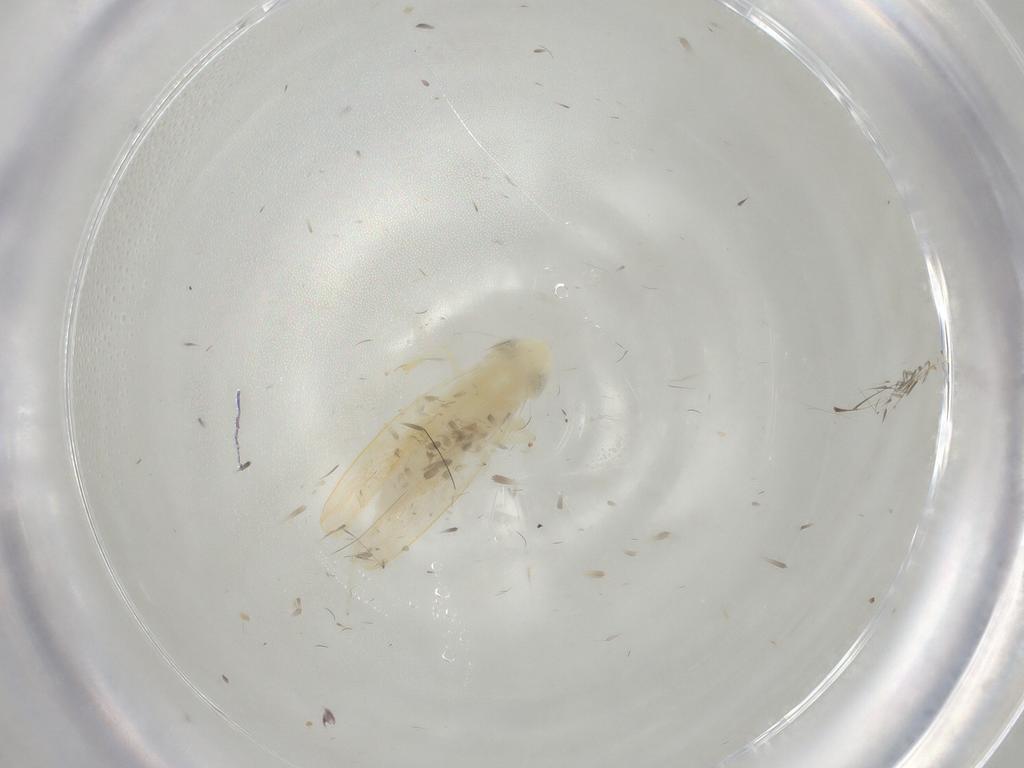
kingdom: Animalia
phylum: Arthropoda
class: Insecta
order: Hemiptera
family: Cicadellidae
